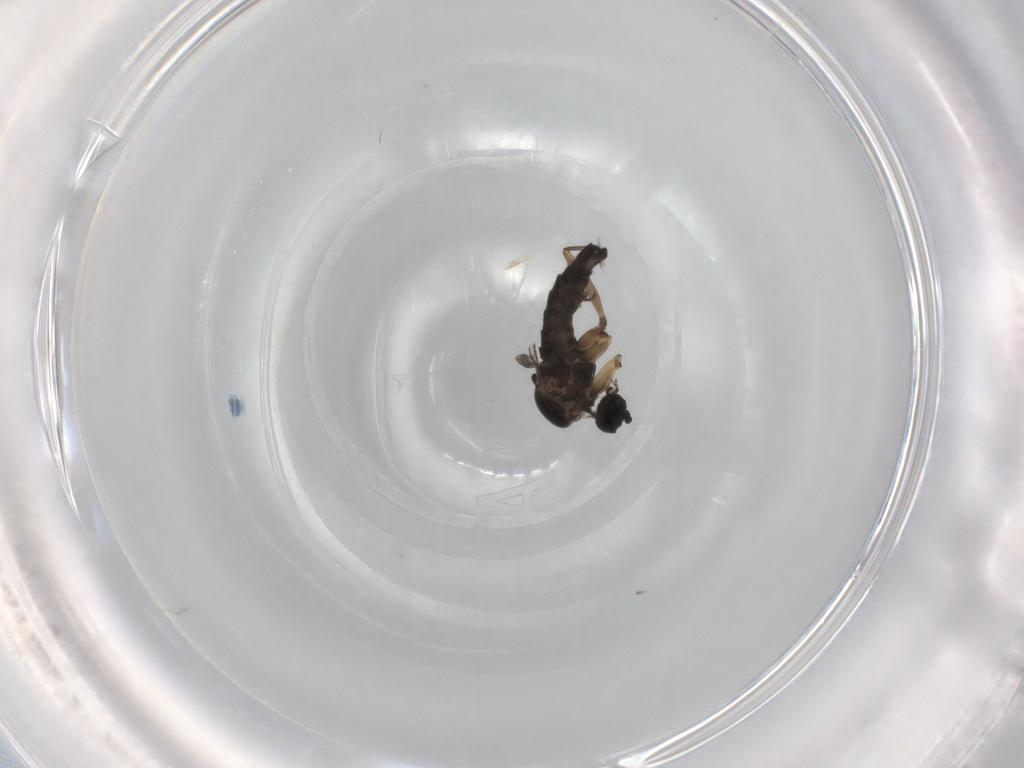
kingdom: Animalia
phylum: Arthropoda
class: Insecta
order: Diptera
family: Sciaridae
